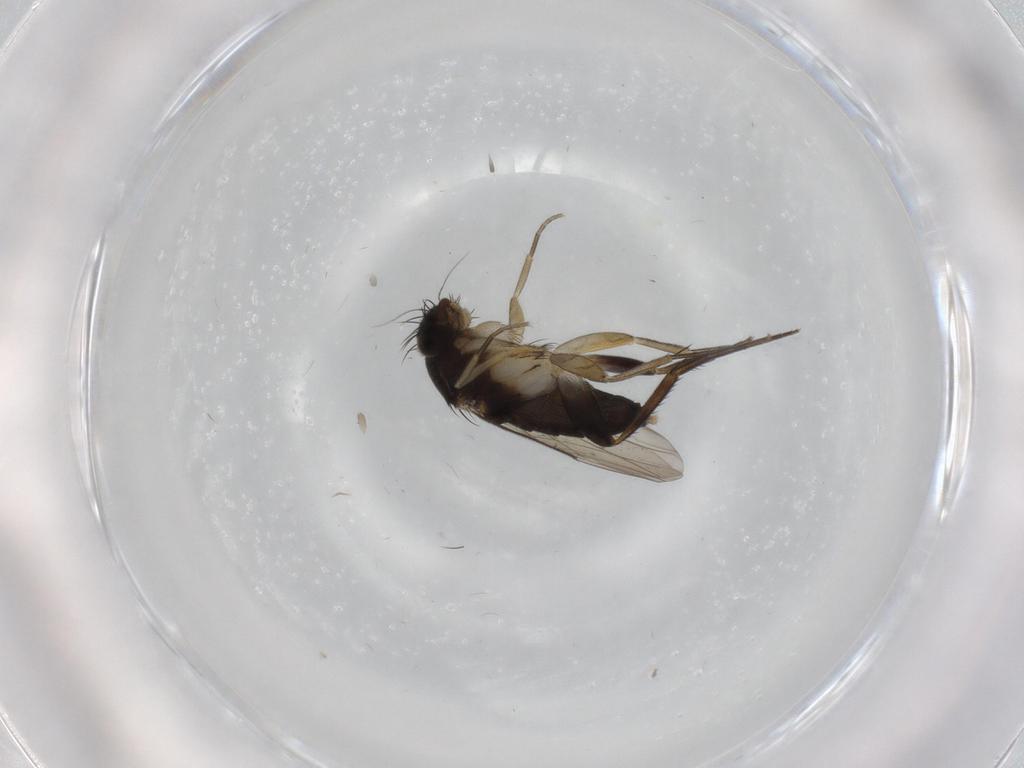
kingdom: Animalia
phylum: Arthropoda
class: Insecta
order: Diptera
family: Phoridae
